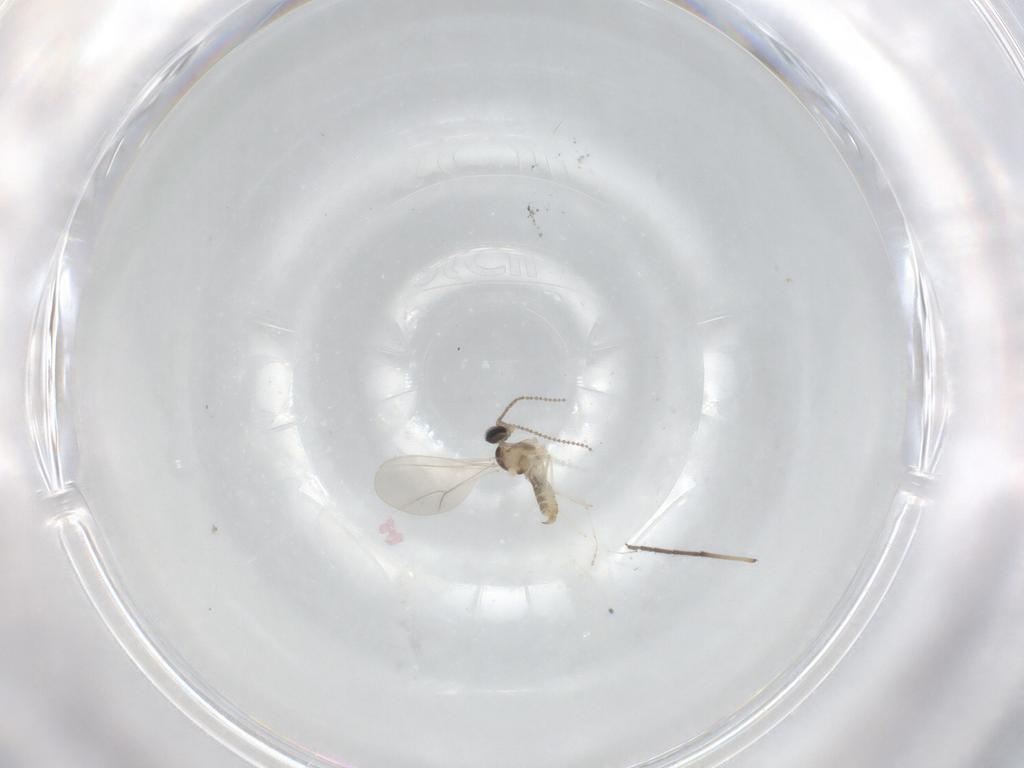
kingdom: Animalia
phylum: Arthropoda
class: Insecta
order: Diptera
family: Cecidomyiidae
